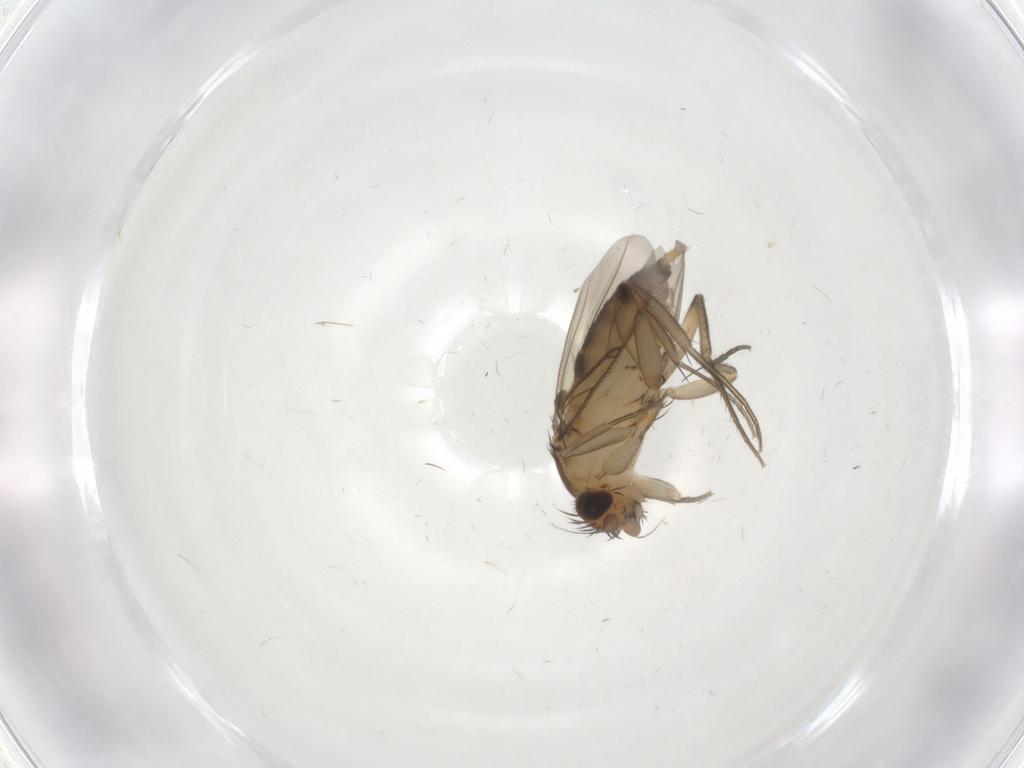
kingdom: Animalia
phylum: Arthropoda
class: Insecta
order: Diptera
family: Phoridae
